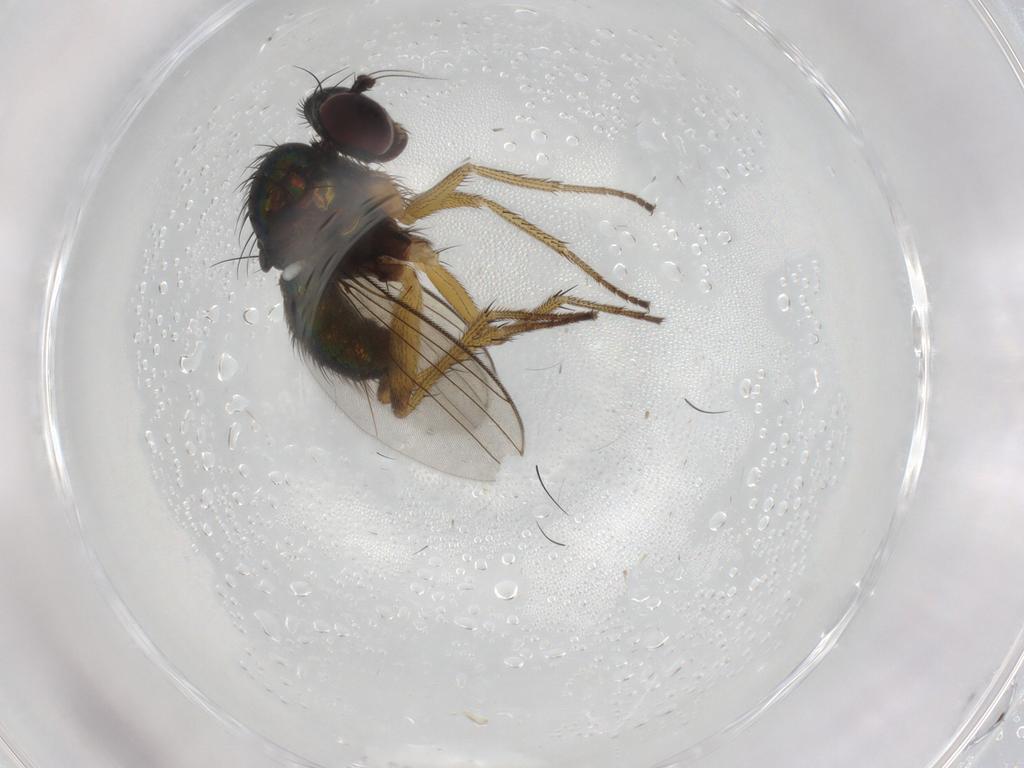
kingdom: Animalia
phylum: Arthropoda
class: Insecta
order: Diptera
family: Dolichopodidae
